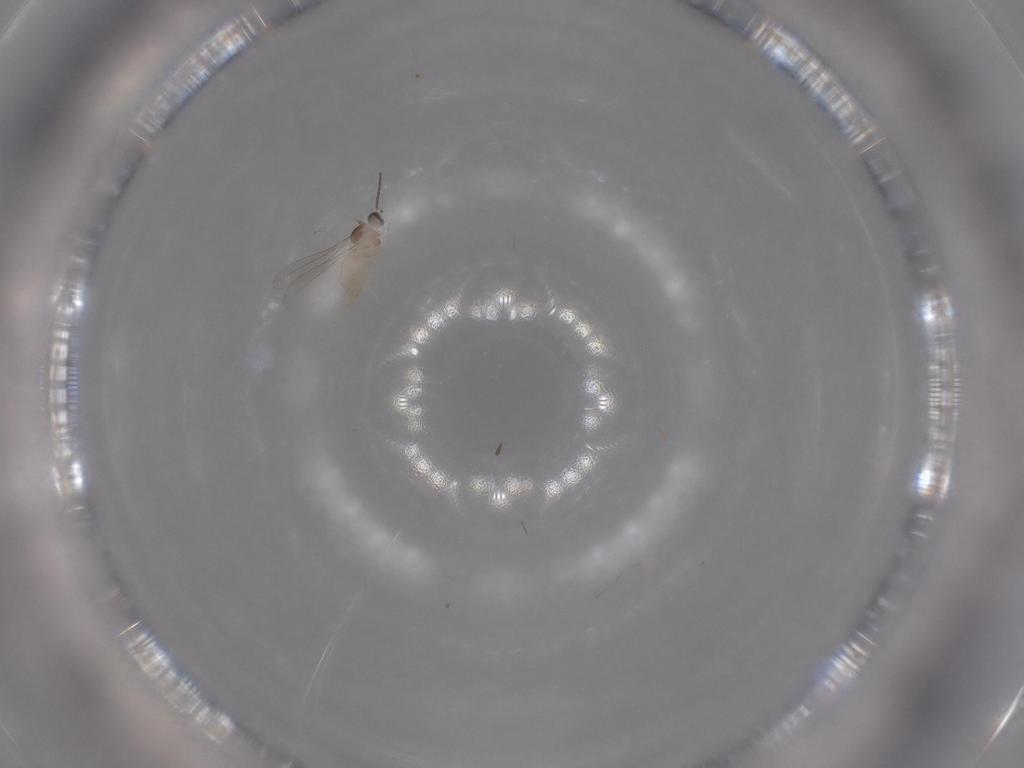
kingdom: Animalia
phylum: Arthropoda
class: Insecta
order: Diptera
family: Cecidomyiidae
